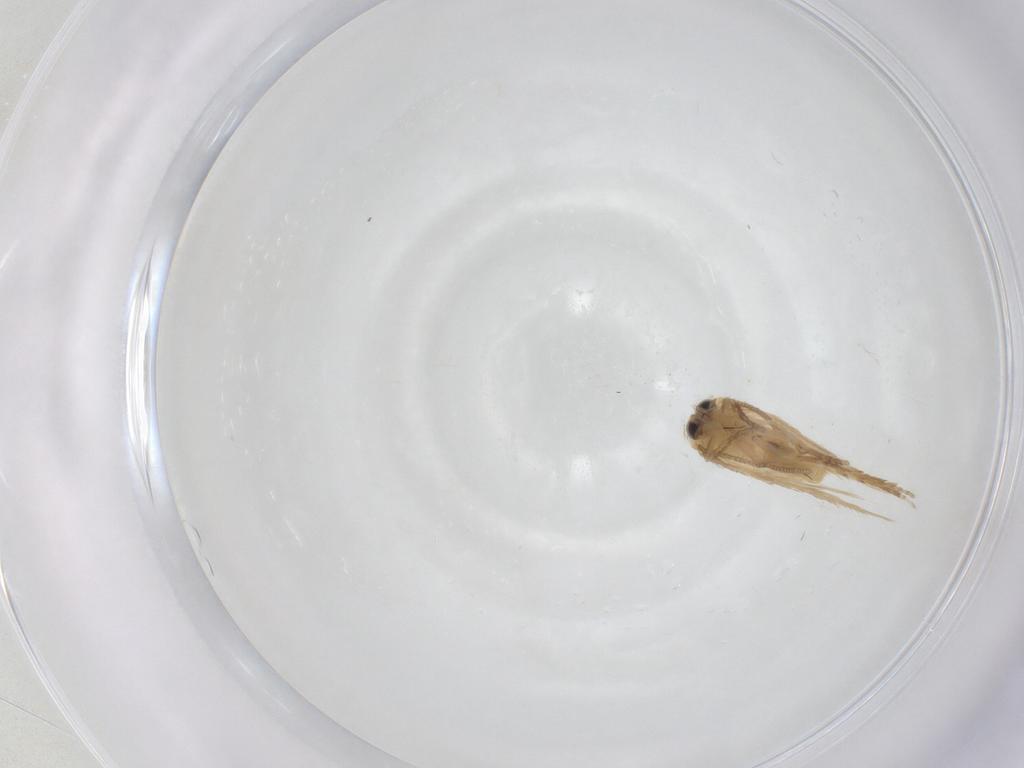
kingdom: Animalia
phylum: Arthropoda
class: Insecta
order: Lepidoptera
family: Nepticulidae
